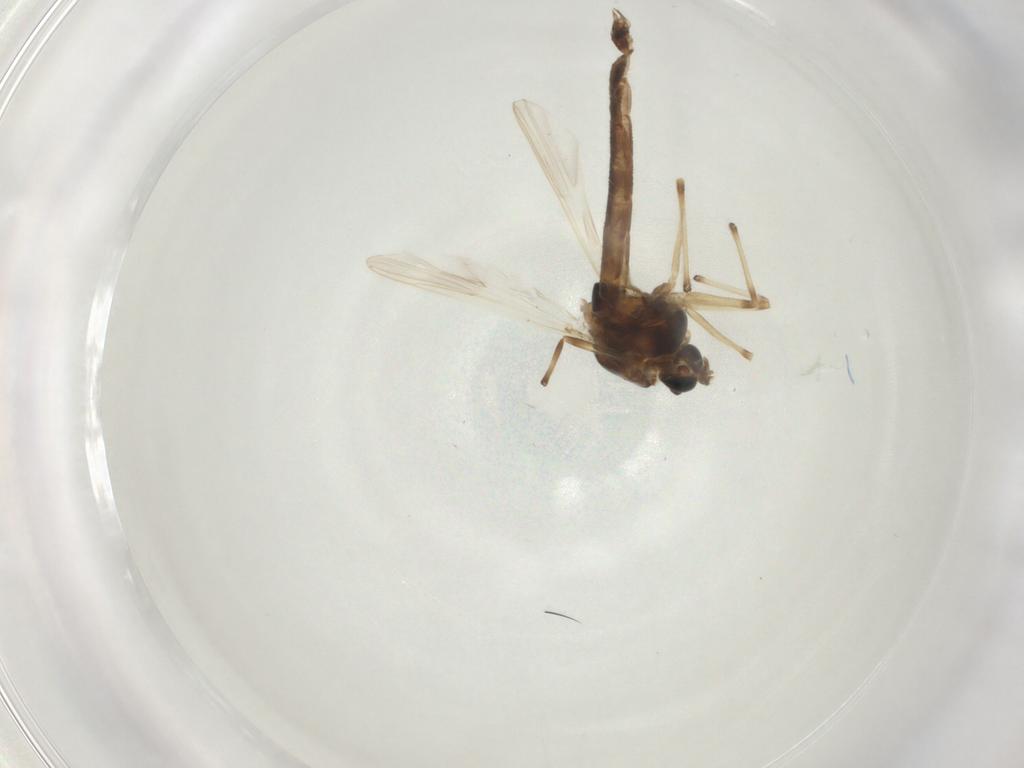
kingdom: Animalia
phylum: Arthropoda
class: Insecta
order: Diptera
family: Chironomidae
